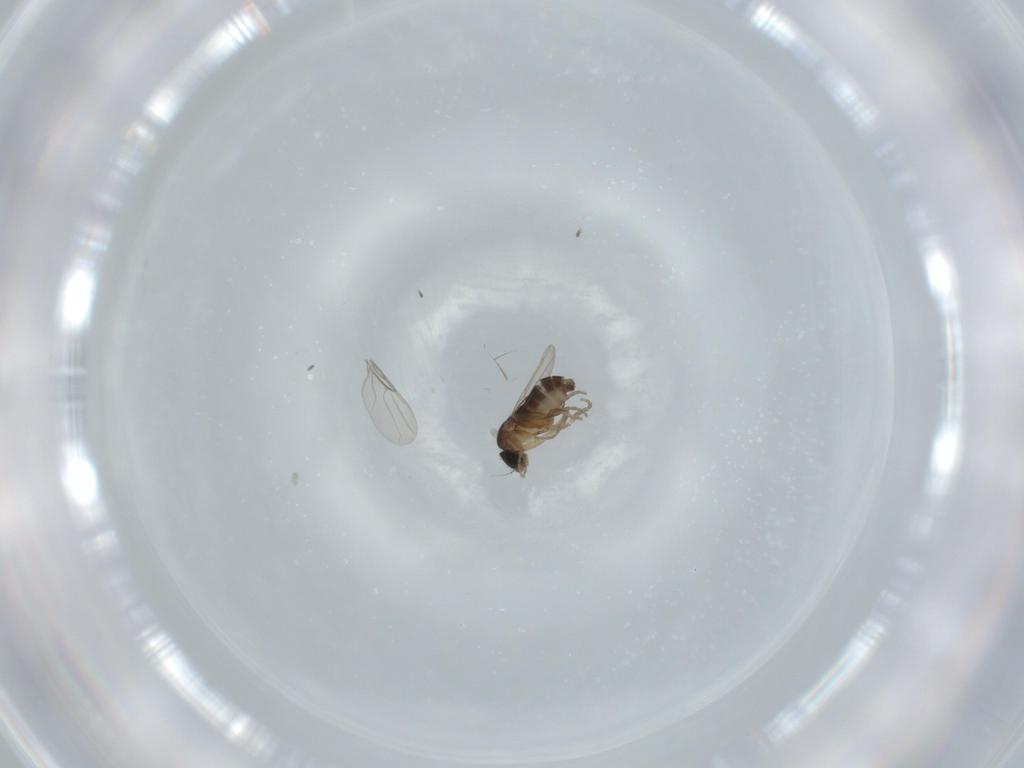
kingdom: Animalia
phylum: Arthropoda
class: Insecta
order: Diptera
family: Phoridae
